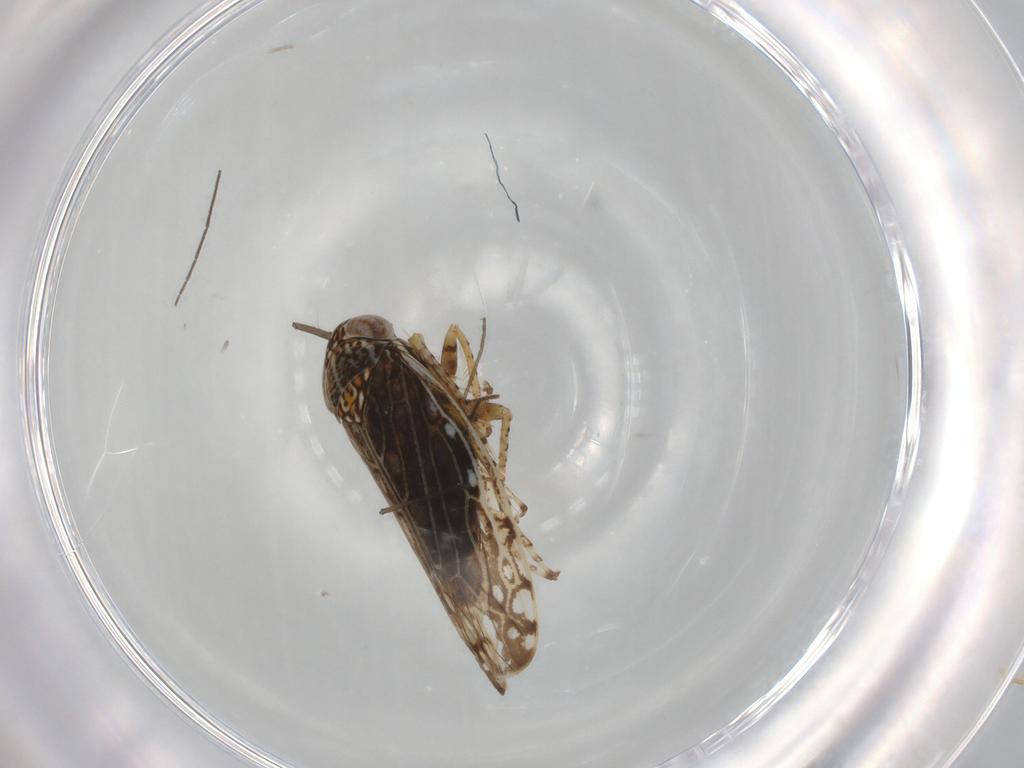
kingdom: Animalia
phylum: Arthropoda
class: Insecta
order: Hemiptera
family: Cicadellidae
